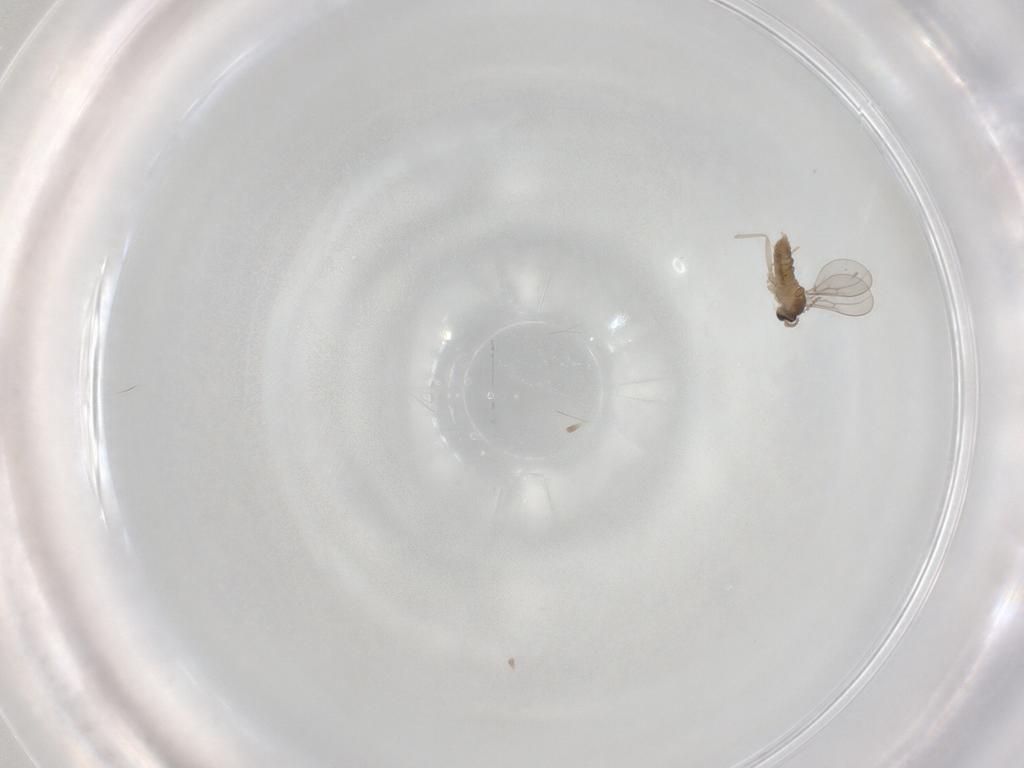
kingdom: Animalia
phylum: Arthropoda
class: Insecta
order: Diptera
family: Cecidomyiidae
